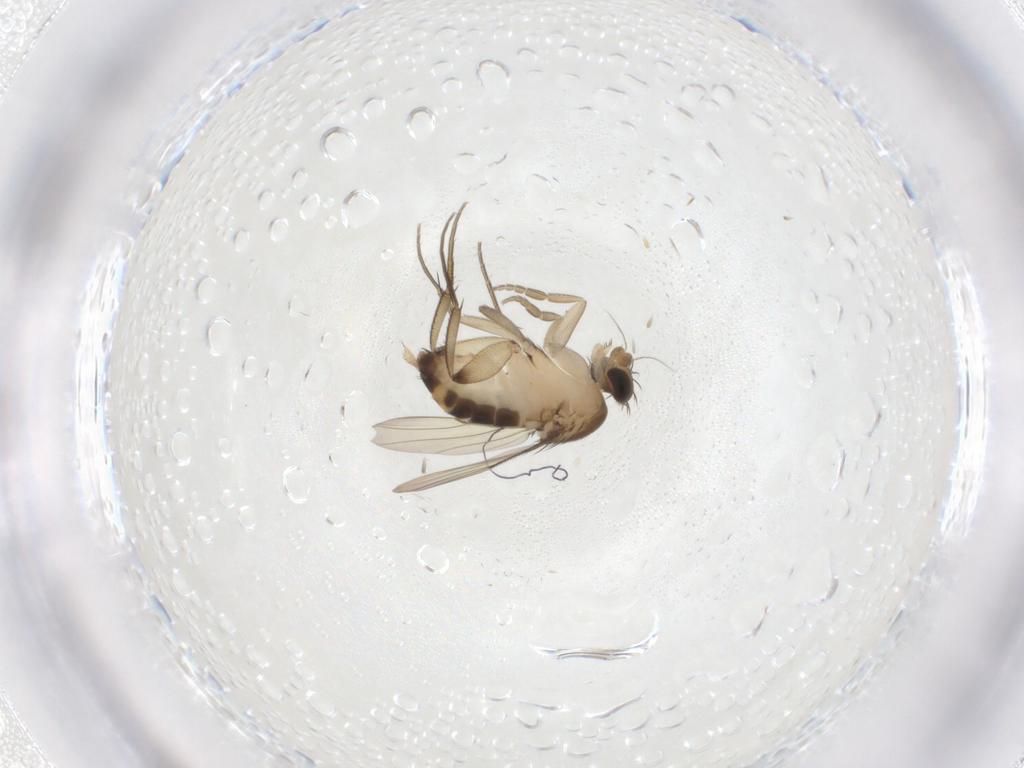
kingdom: Animalia
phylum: Arthropoda
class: Insecta
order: Diptera
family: Phoridae
